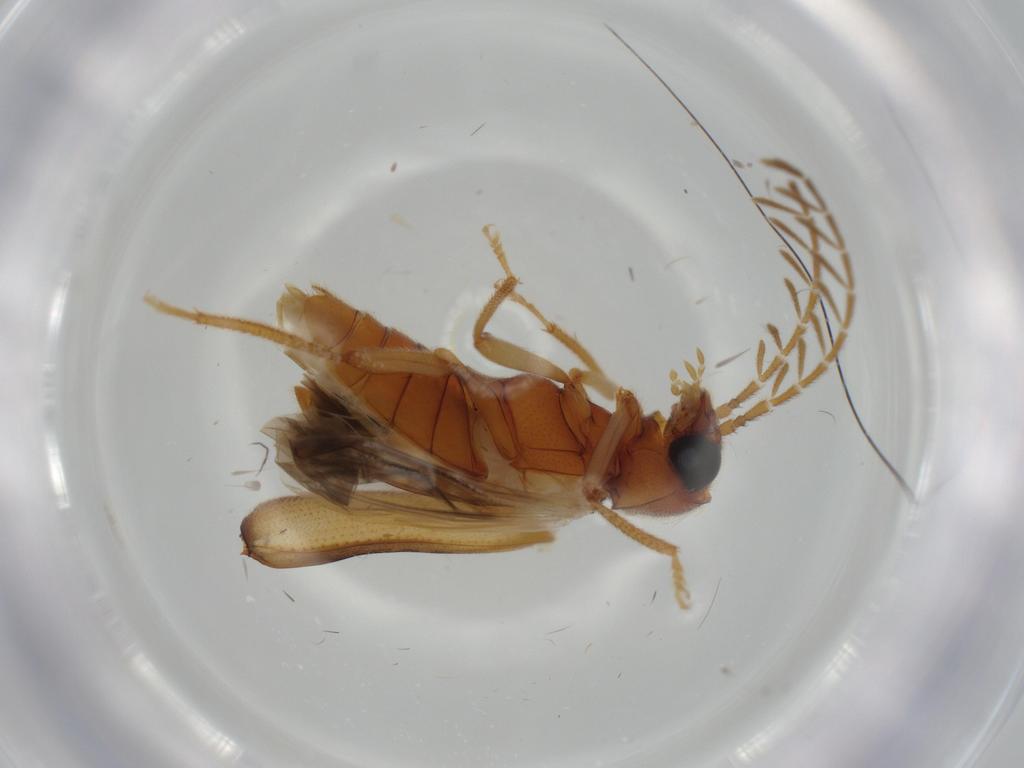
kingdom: Animalia
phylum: Arthropoda
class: Insecta
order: Coleoptera
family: Ptilodactylidae
